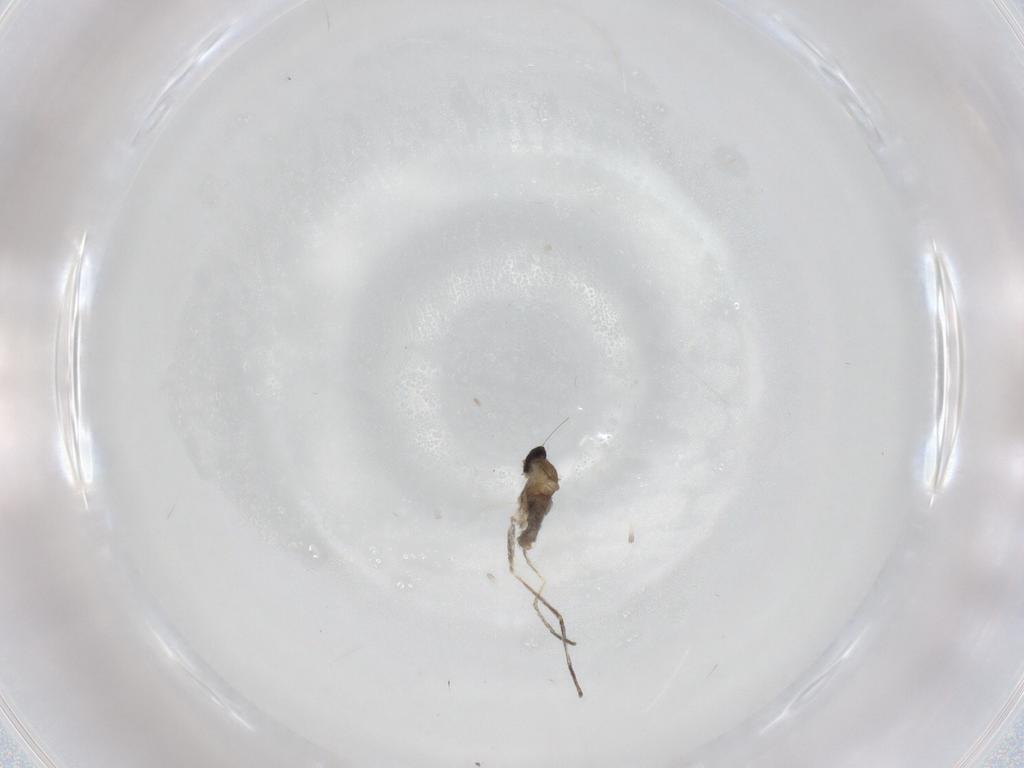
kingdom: Animalia
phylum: Arthropoda
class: Insecta
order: Diptera
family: Cecidomyiidae
